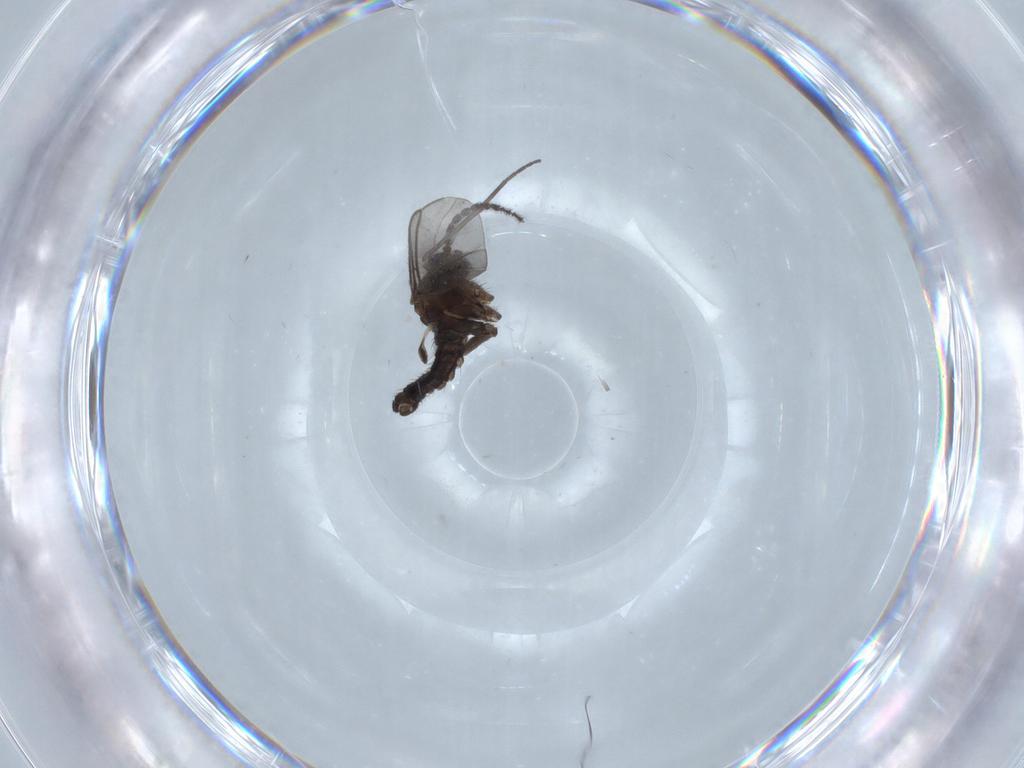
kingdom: Animalia
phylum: Arthropoda
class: Insecta
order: Diptera
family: Sciaridae
